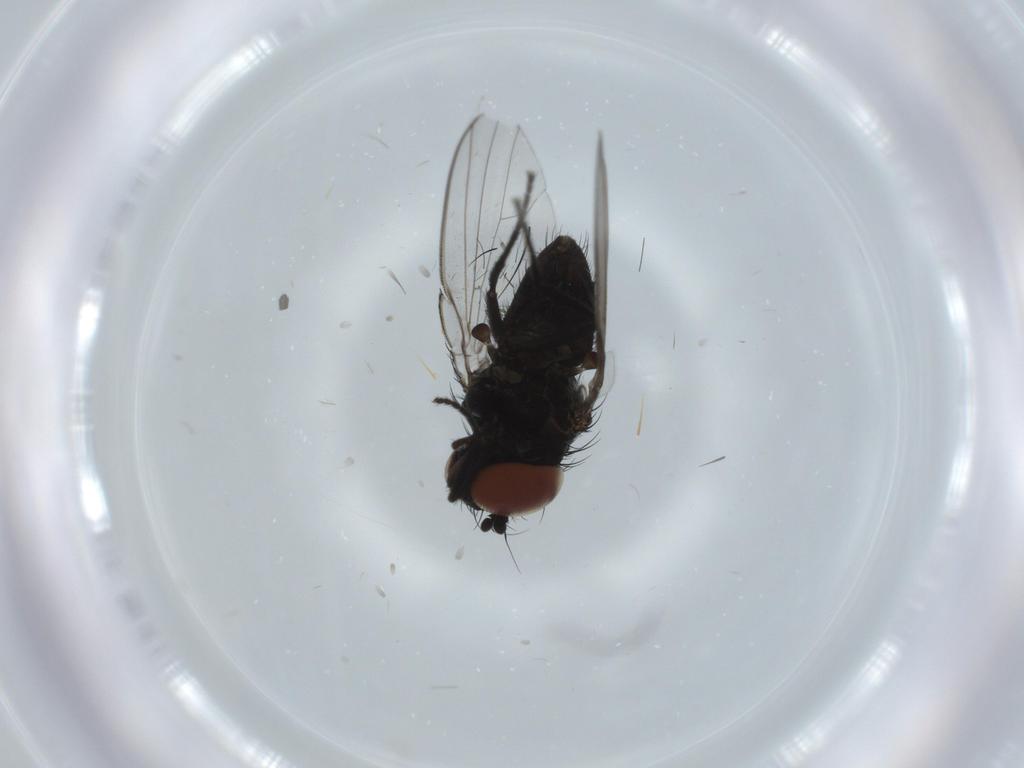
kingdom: Animalia
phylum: Arthropoda
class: Insecta
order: Diptera
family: Milichiidae
